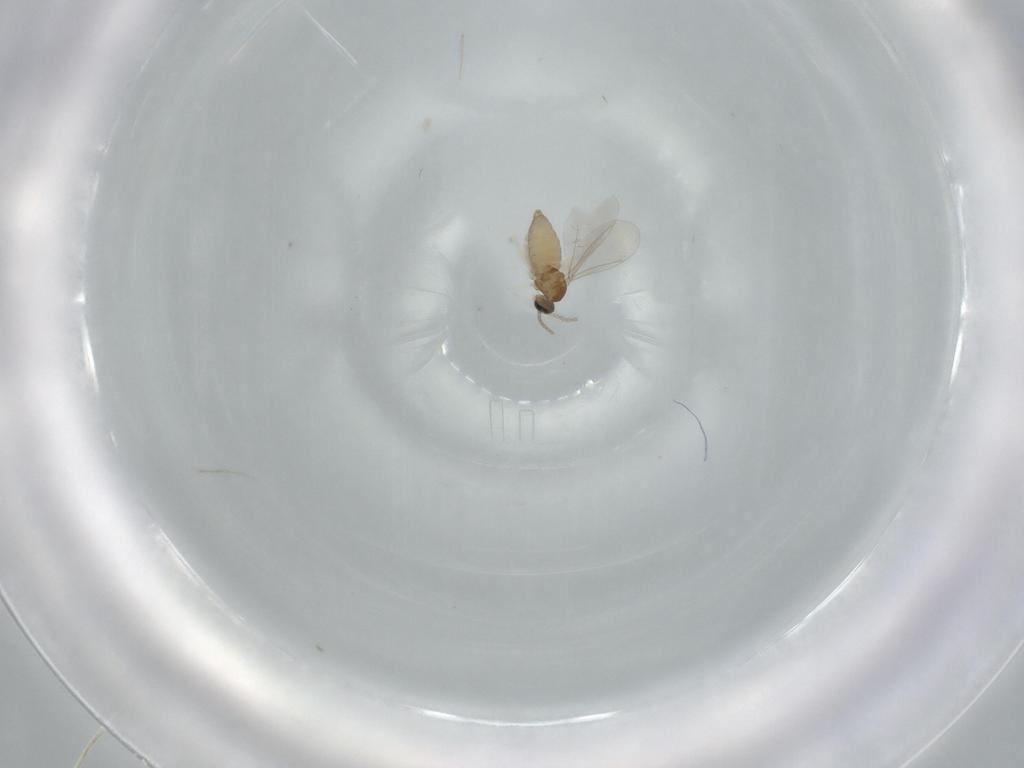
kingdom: Animalia
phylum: Arthropoda
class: Insecta
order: Diptera
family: Cecidomyiidae
